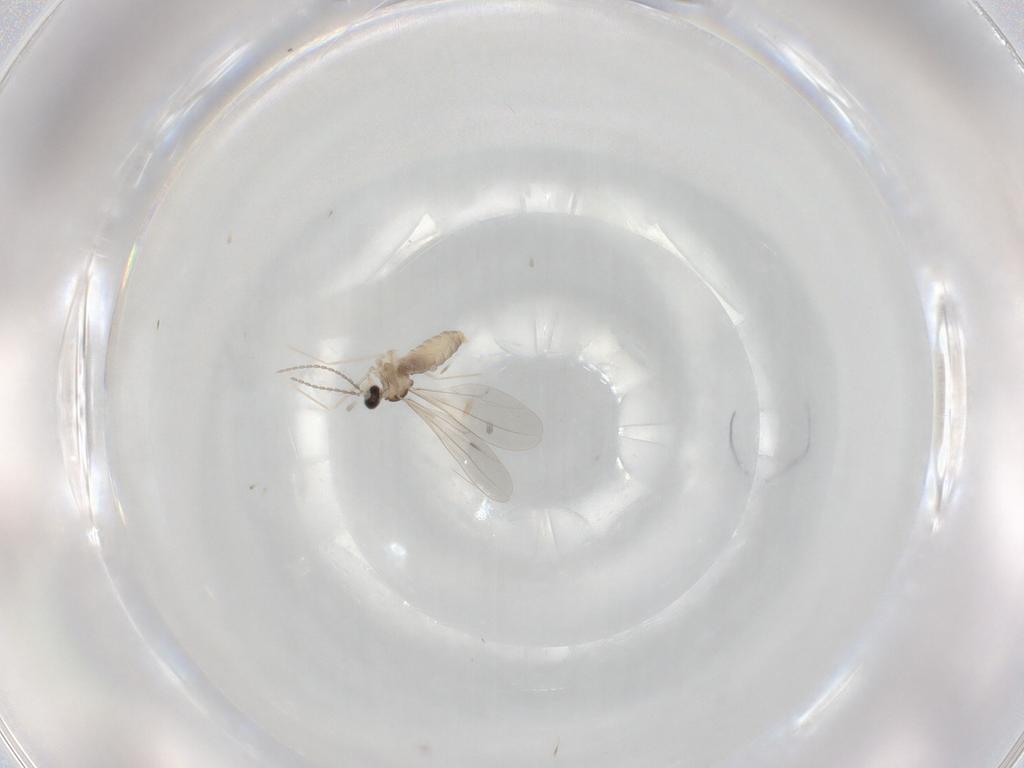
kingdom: Animalia
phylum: Arthropoda
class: Insecta
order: Diptera
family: Cecidomyiidae
